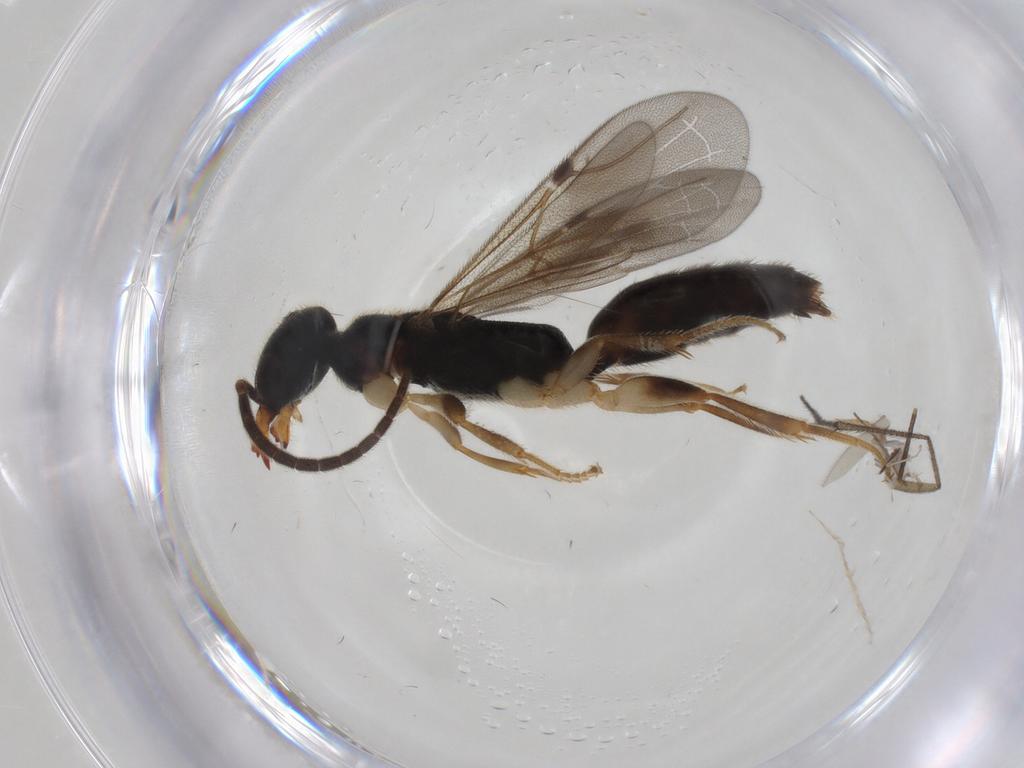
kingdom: Animalia
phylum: Arthropoda
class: Insecta
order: Hymenoptera
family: Bethylidae
